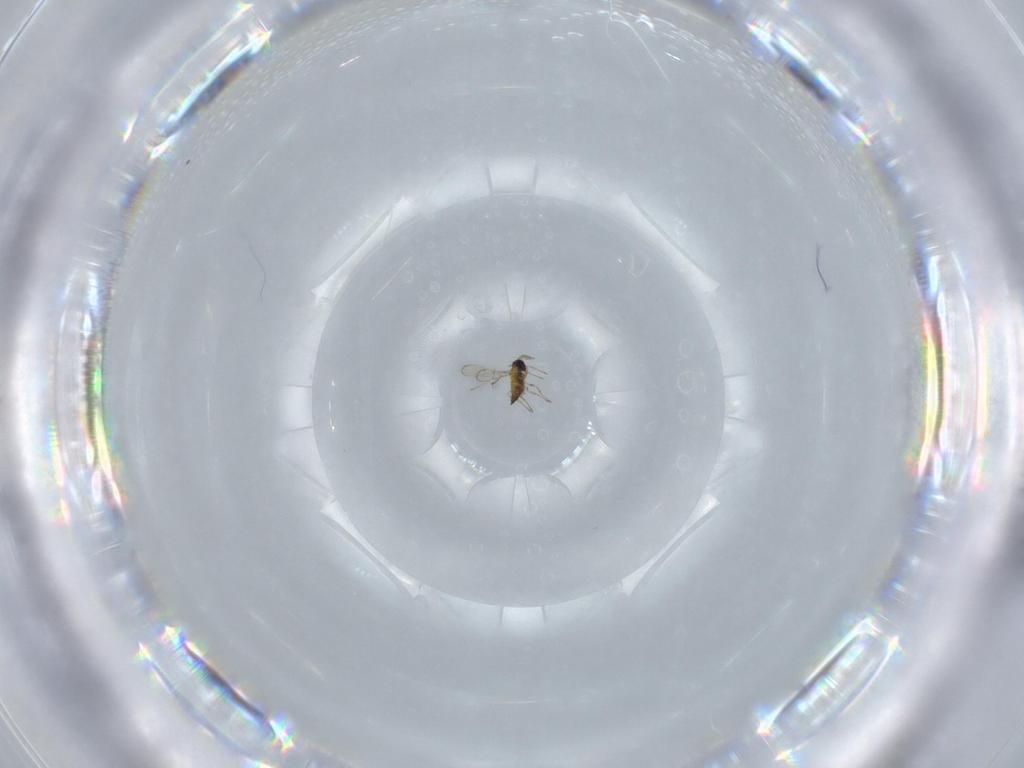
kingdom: Animalia
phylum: Arthropoda
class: Insecta
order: Hymenoptera
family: Trichogrammatidae
